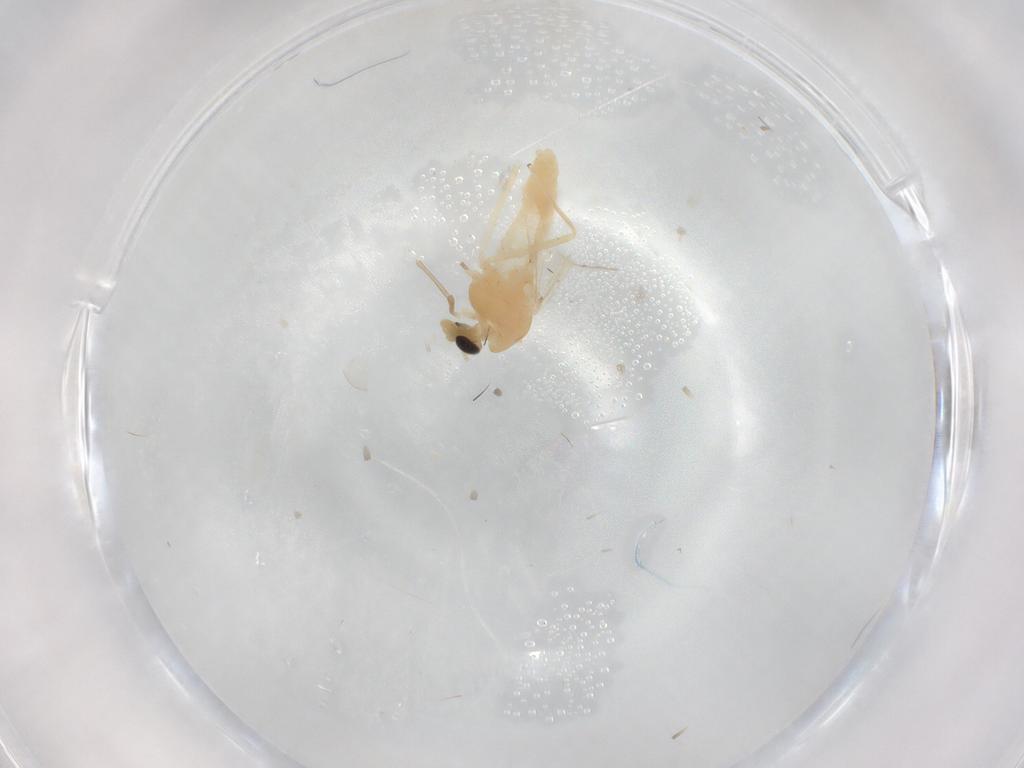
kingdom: Animalia
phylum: Arthropoda
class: Insecta
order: Diptera
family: Chironomidae
